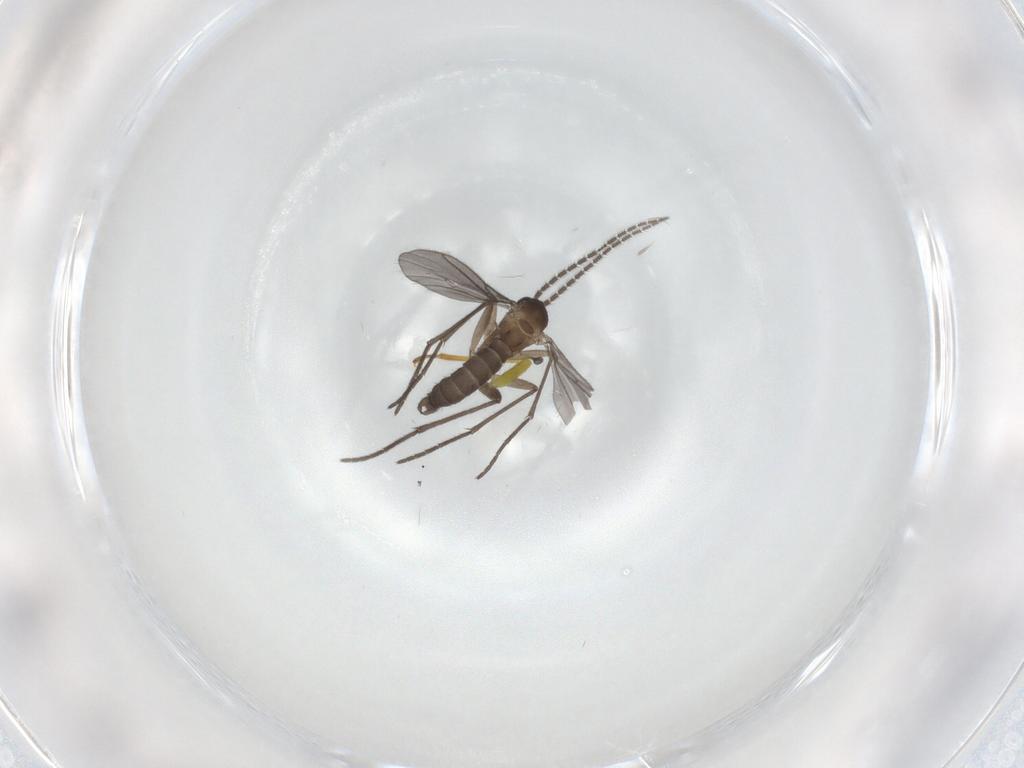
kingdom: Animalia
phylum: Arthropoda
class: Insecta
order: Diptera
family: Sciaridae
